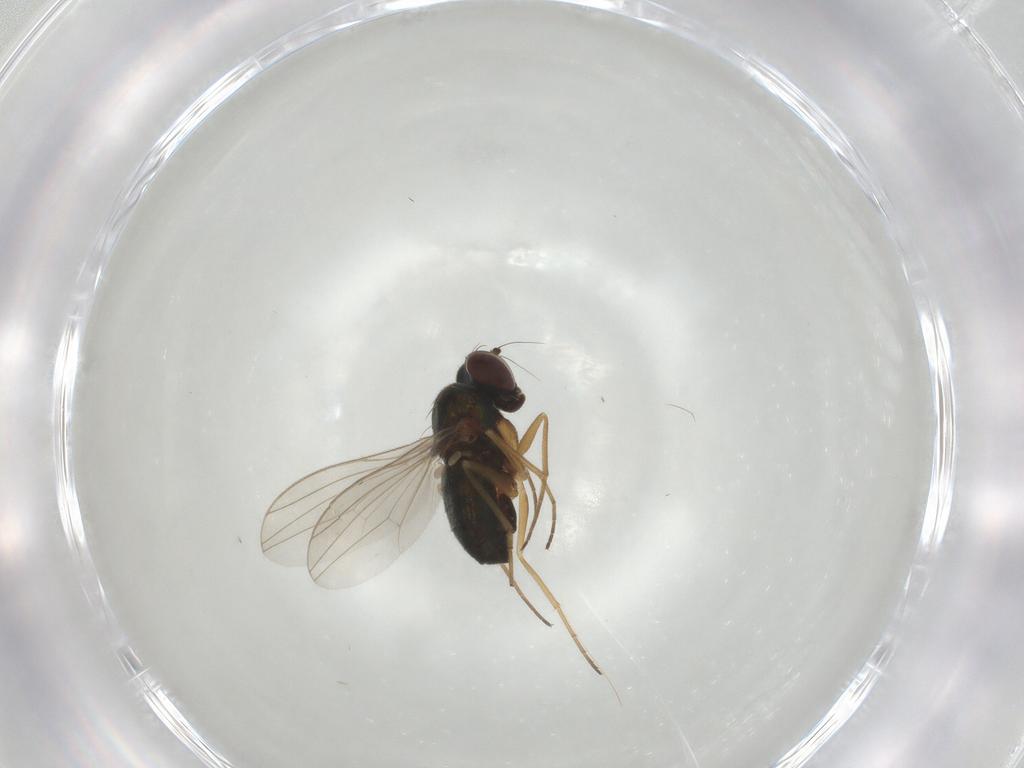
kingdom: Animalia
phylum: Arthropoda
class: Insecta
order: Diptera
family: Dolichopodidae
